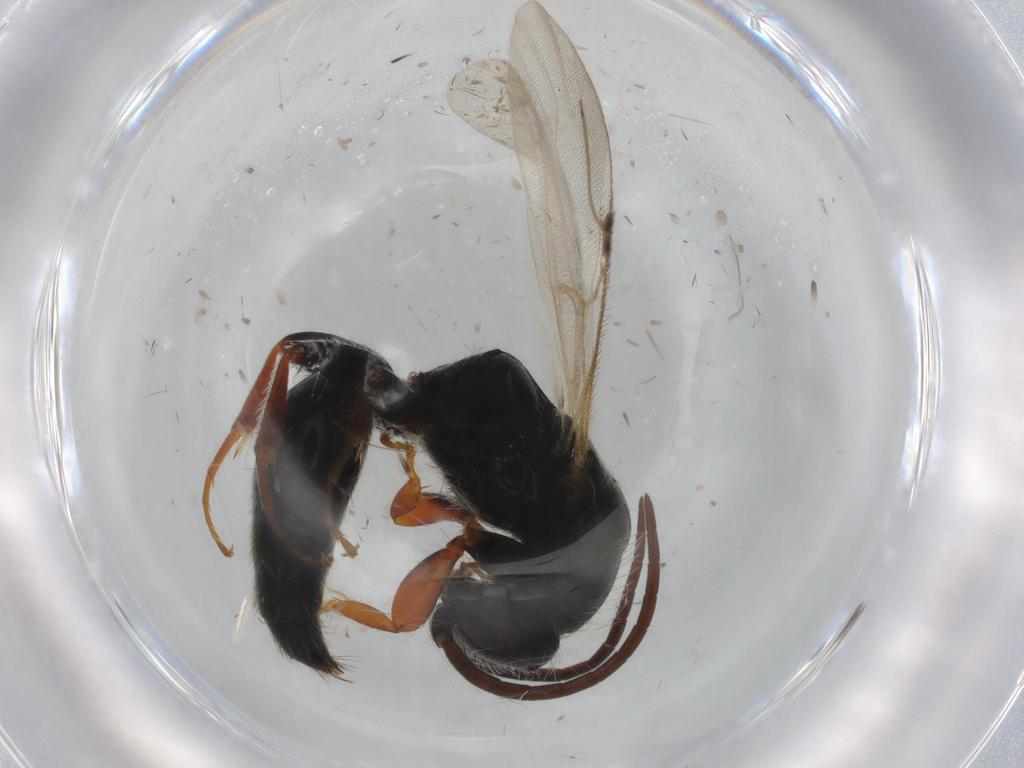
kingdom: Animalia
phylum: Arthropoda
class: Insecta
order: Hymenoptera
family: Bethylidae
